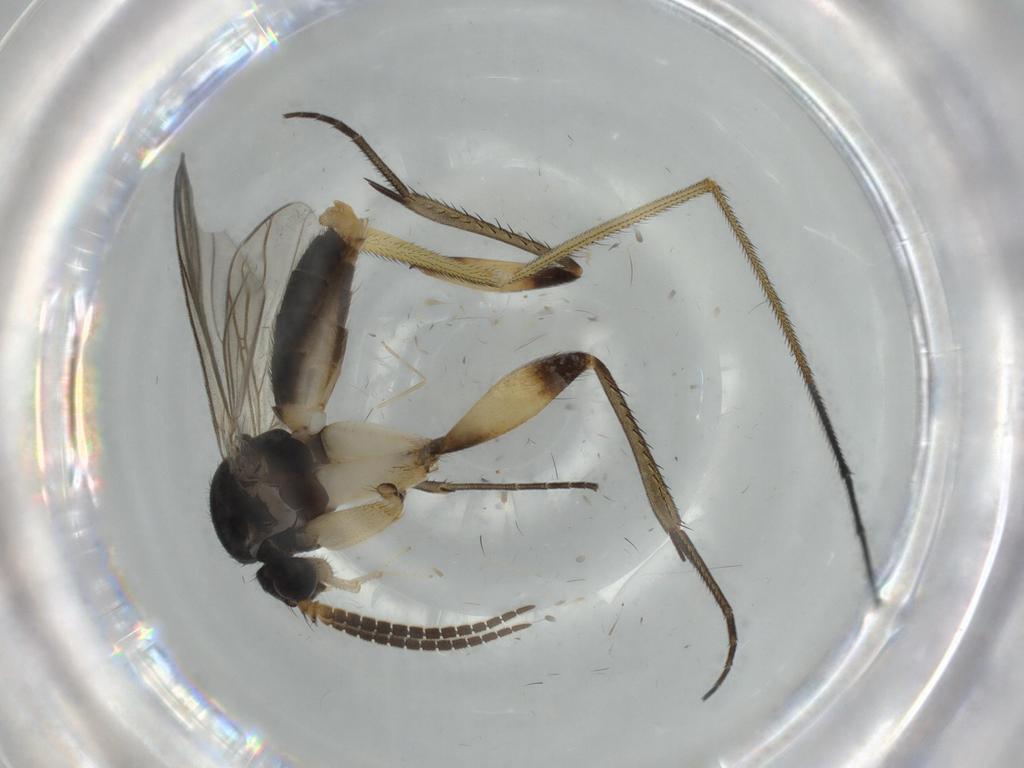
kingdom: Animalia
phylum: Arthropoda
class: Insecta
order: Diptera
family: Mycetophilidae
